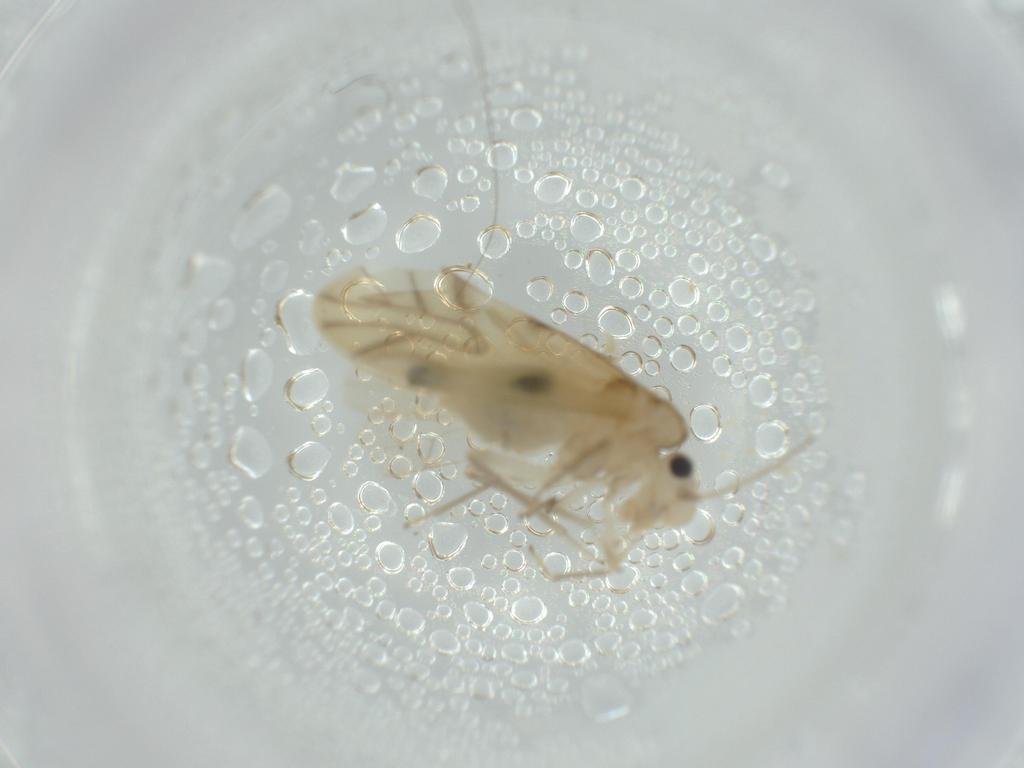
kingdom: Animalia
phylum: Arthropoda
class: Insecta
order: Psocodea
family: Caeciliusidae
